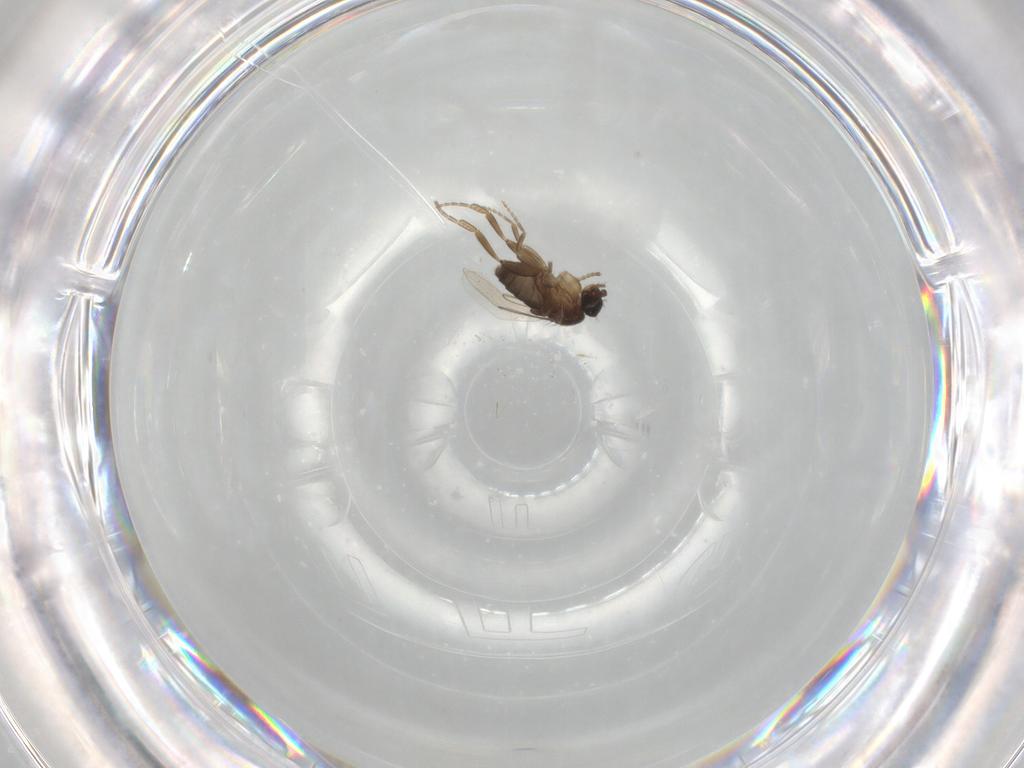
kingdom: Animalia
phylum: Arthropoda
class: Insecta
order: Diptera
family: Phoridae
